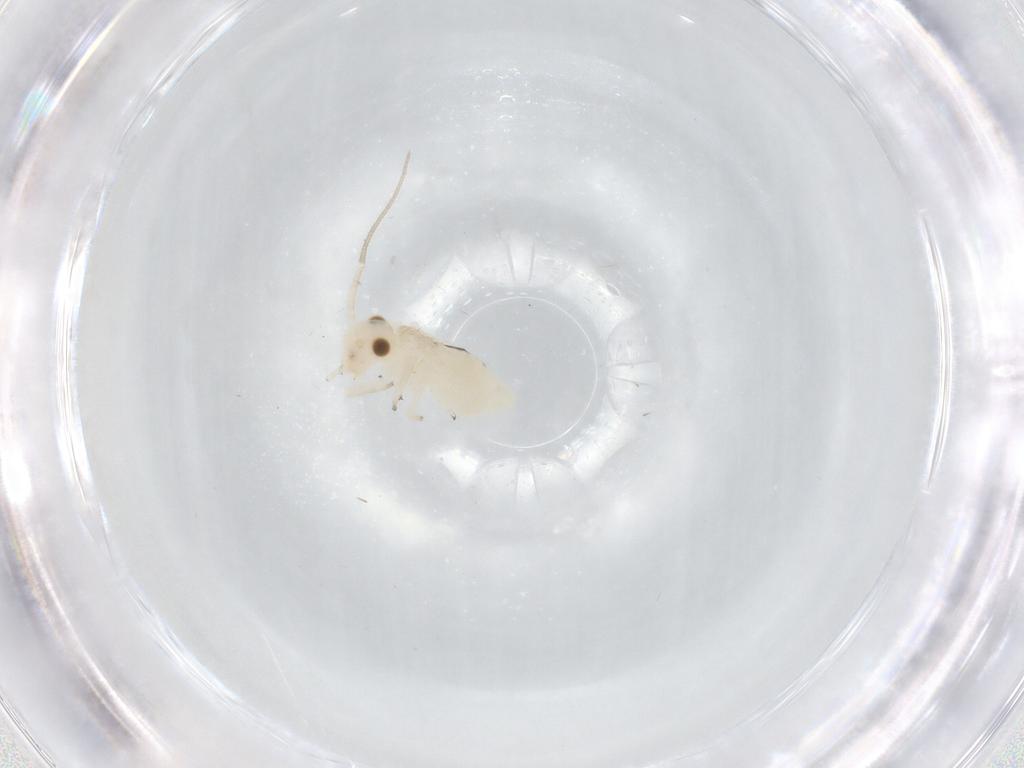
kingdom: Animalia
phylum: Arthropoda
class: Insecta
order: Psocodea
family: Caeciliusidae
